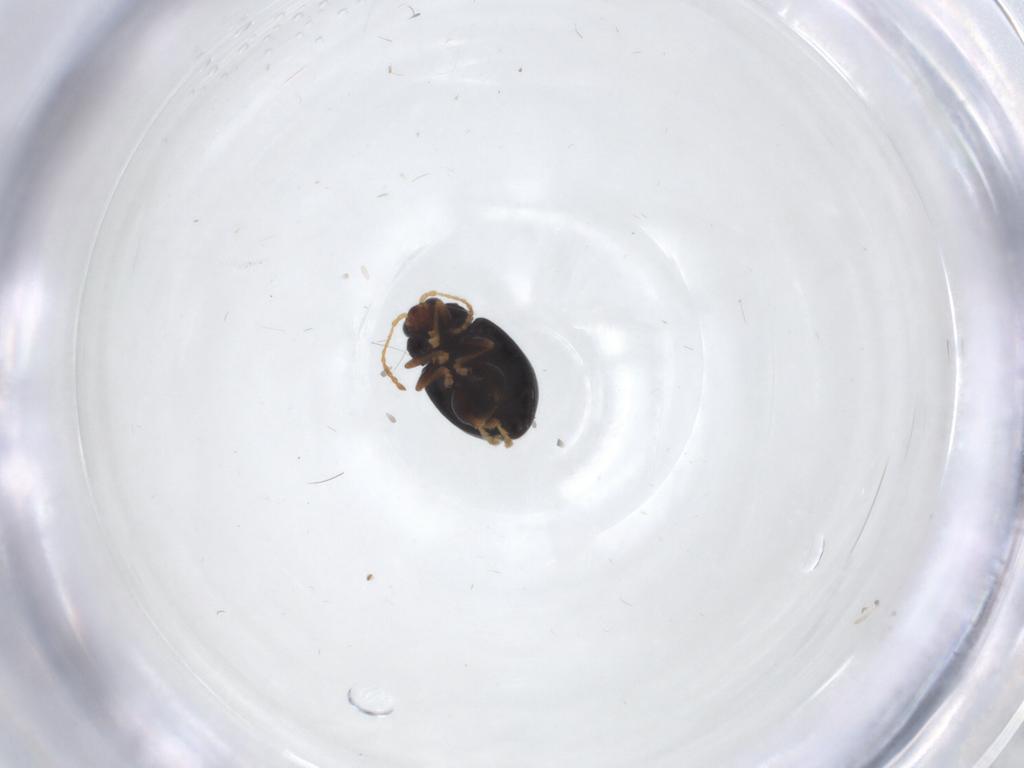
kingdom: Animalia
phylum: Arthropoda
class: Insecta
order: Coleoptera
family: Chrysomelidae
